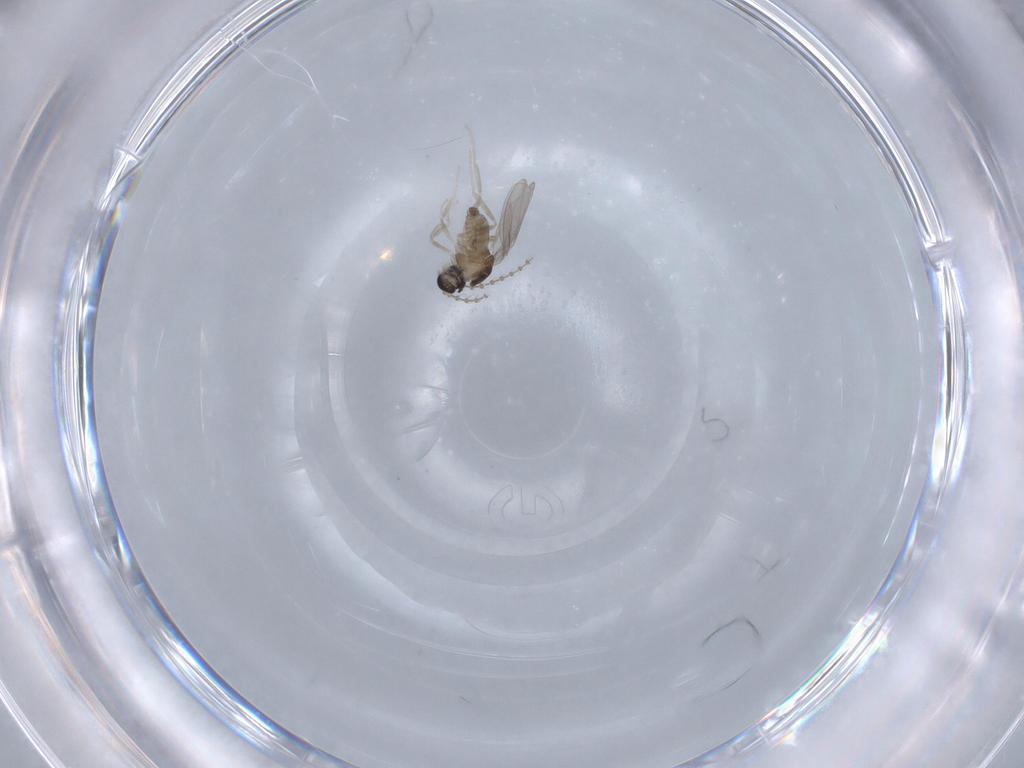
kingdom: Animalia
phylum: Arthropoda
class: Insecta
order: Diptera
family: Cecidomyiidae
